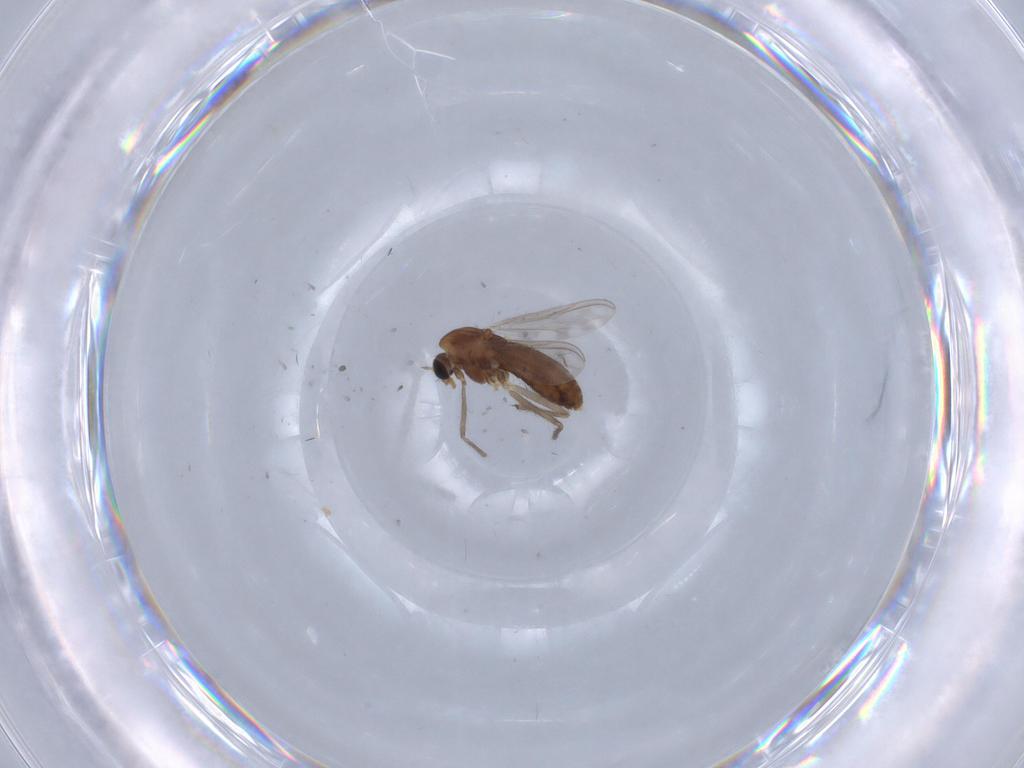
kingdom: Animalia
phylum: Arthropoda
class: Insecta
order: Diptera
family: Chironomidae
